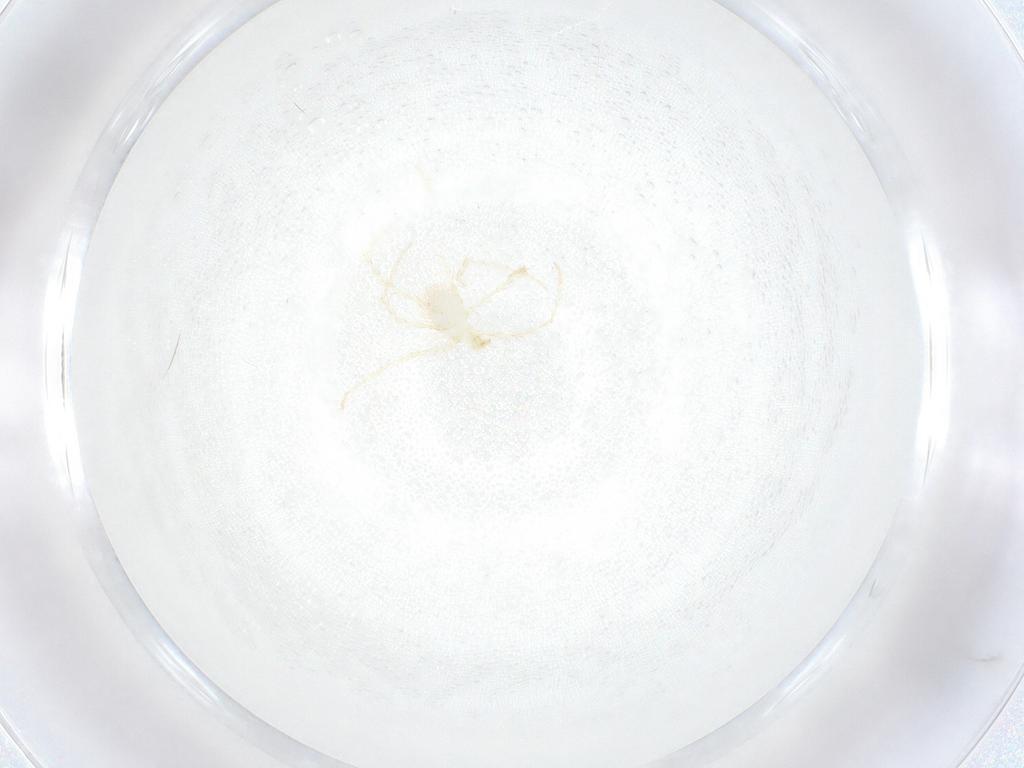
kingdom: Animalia
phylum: Arthropoda
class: Arachnida
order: Trombidiformes
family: Erythraeidae
